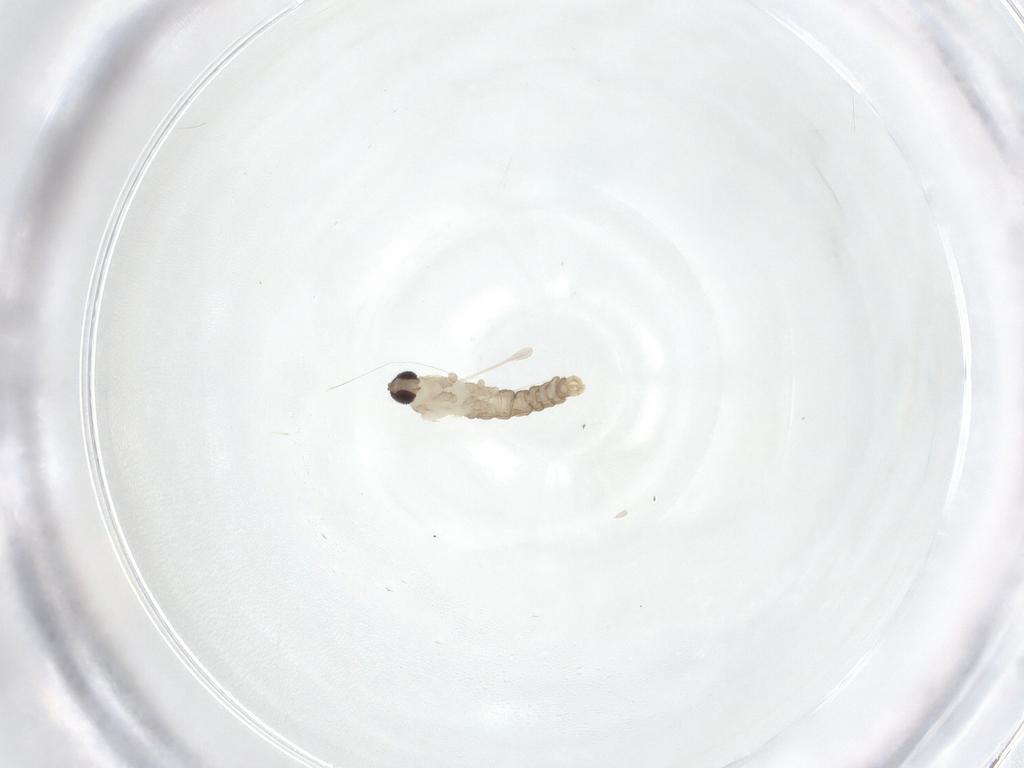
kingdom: Animalia
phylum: Arthropoda
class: Insecta
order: Diptera
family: Cecidomyiidae
